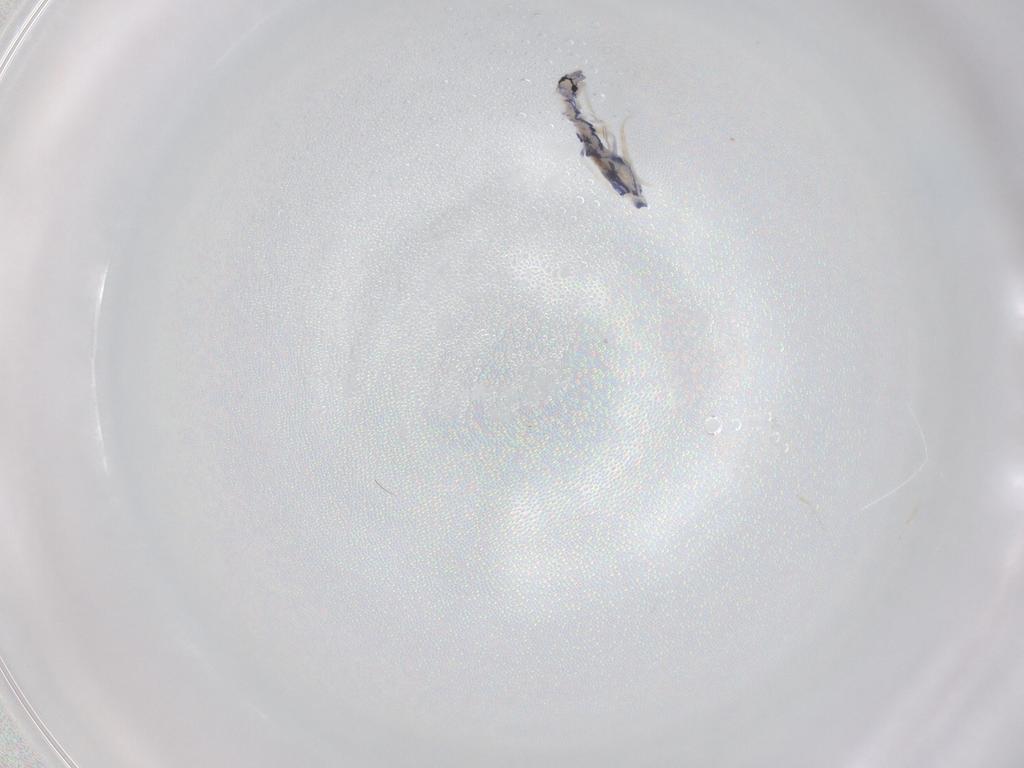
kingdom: Animalia
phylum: Arthropoda
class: Collembola
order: Entomobryomorpha
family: Entomobryidae
